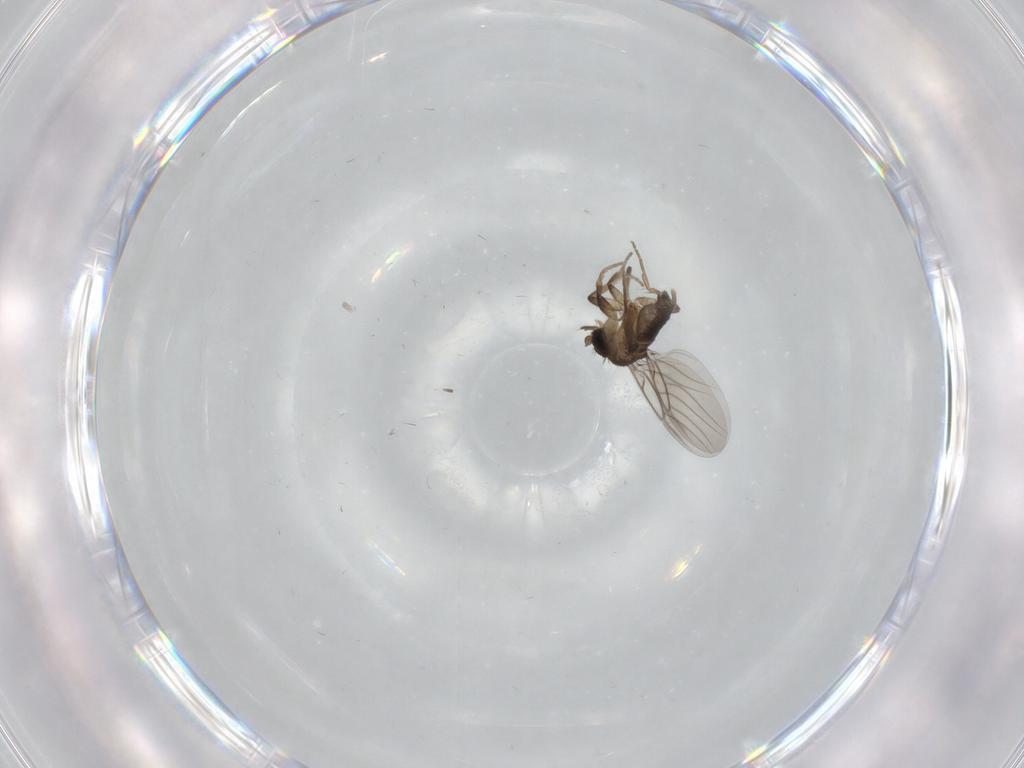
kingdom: Animalia
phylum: Arthropoda
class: Insecta
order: Diptera
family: Phoridae
